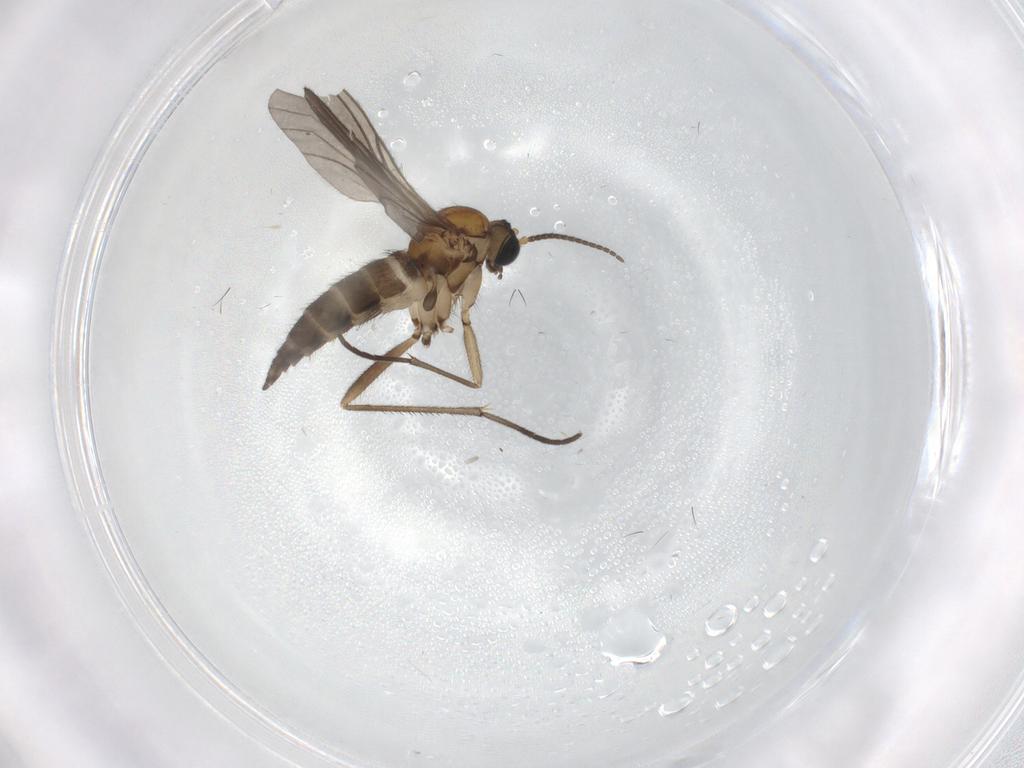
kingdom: Animalia
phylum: Arthropoda
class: Insecta
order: Diptera
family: Sciaridae
